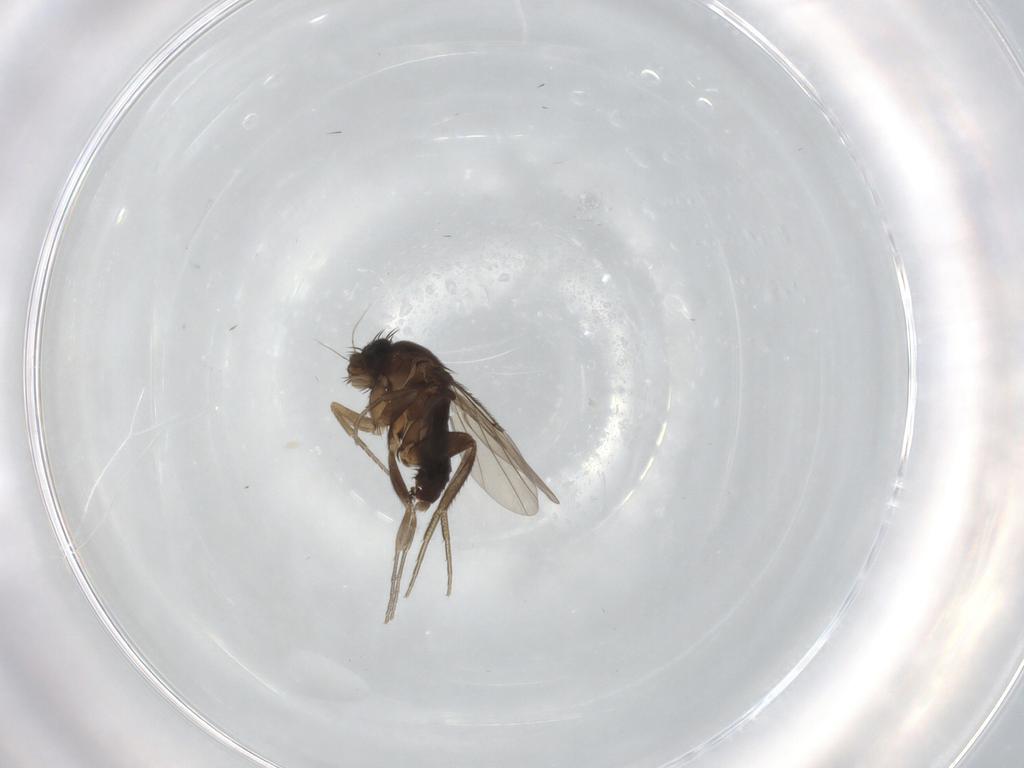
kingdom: Animalia
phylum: Arthropoda
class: Insecta
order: Diptera
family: Phoridae
